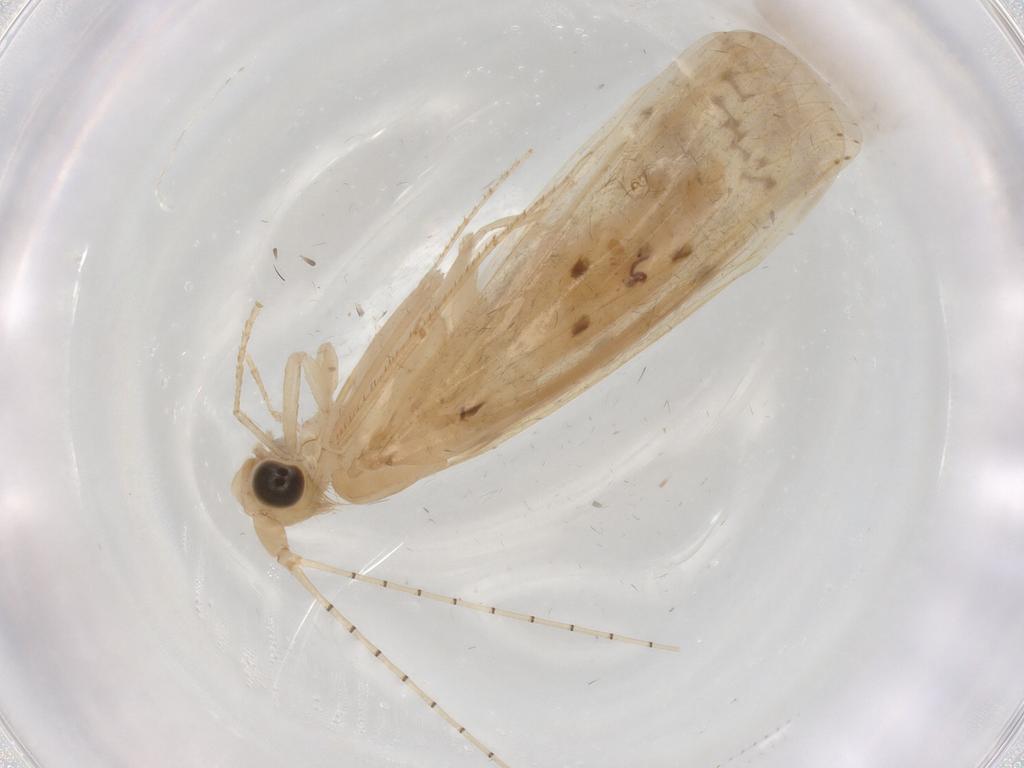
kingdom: Animalia
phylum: Arthropoda
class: Insecta
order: Trichoptera
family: Leptoceridae
